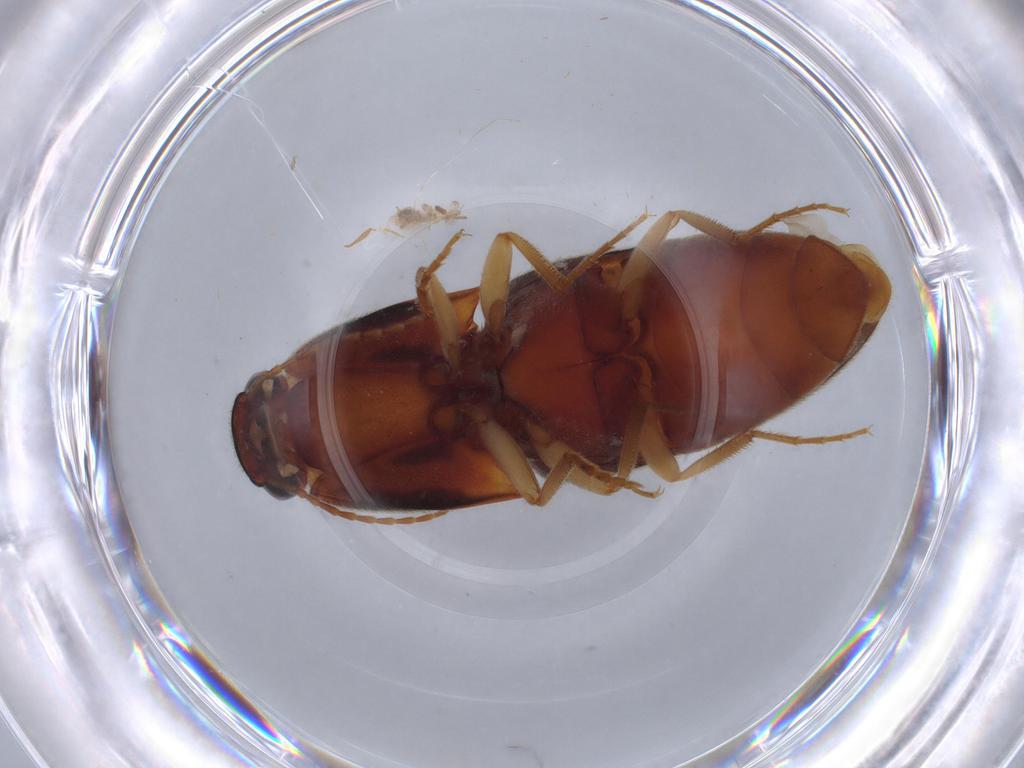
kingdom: Animalia
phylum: Arthropoda
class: Insecta
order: Coleoptera
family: Elateridae
